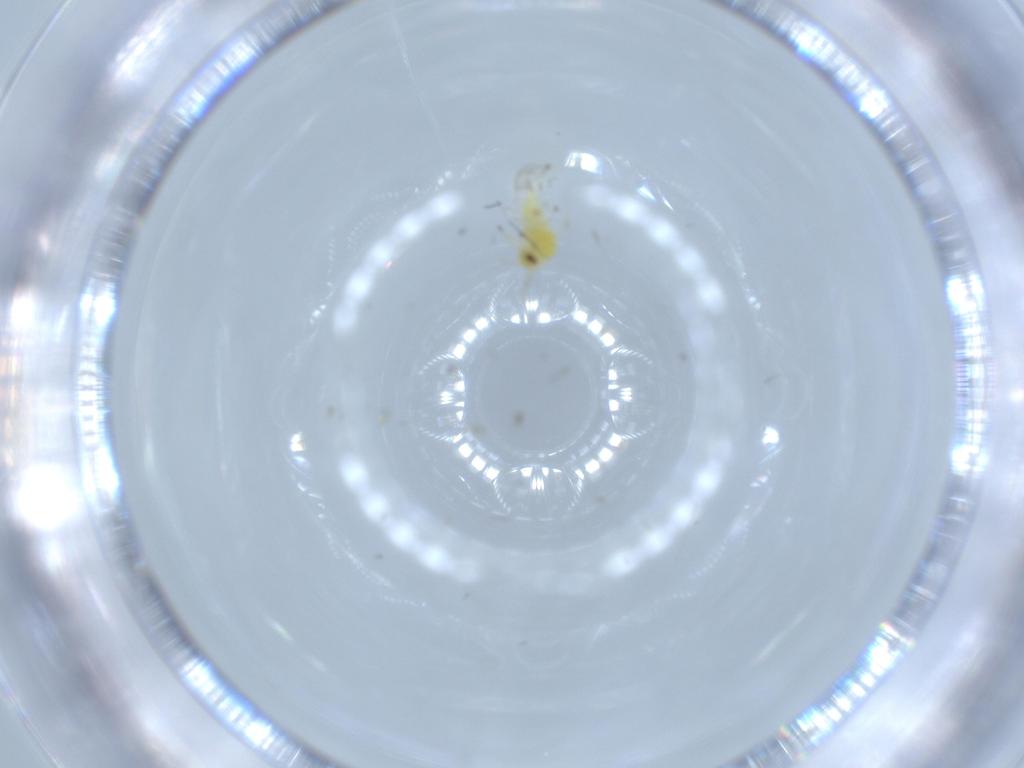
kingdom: Animalia
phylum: Arthropoda
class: Insecta
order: Hemiptera
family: Aleyrodidae
